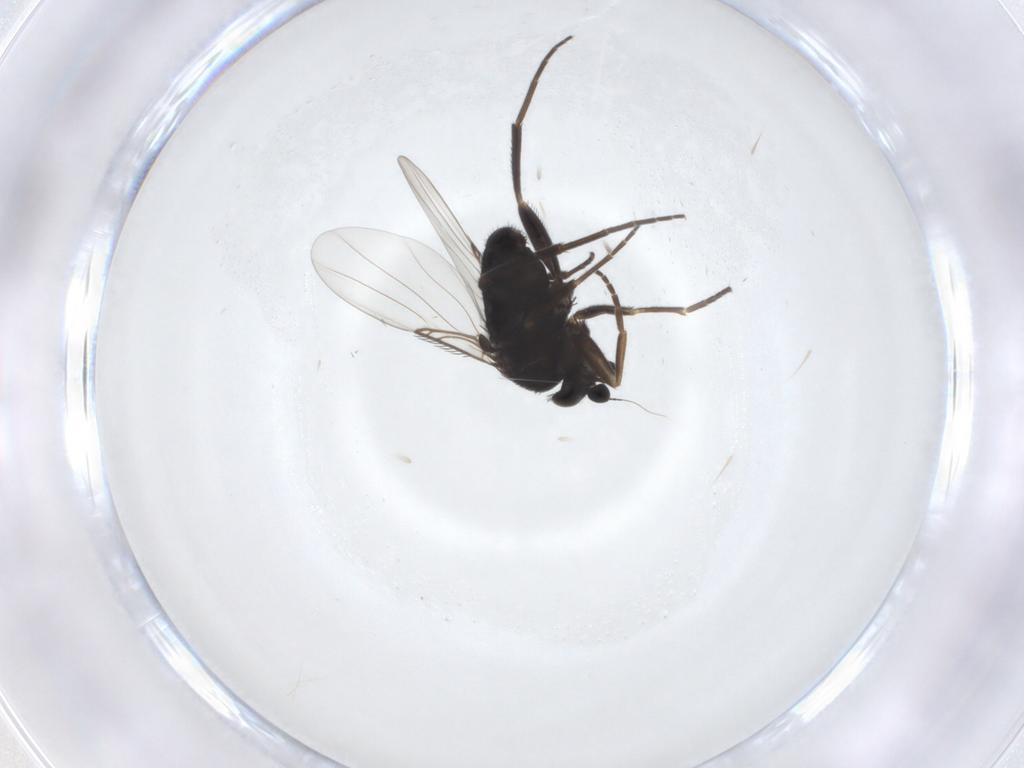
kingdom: Animalia
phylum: Arthropoda
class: Insecta
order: Diptera
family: Phoridae
